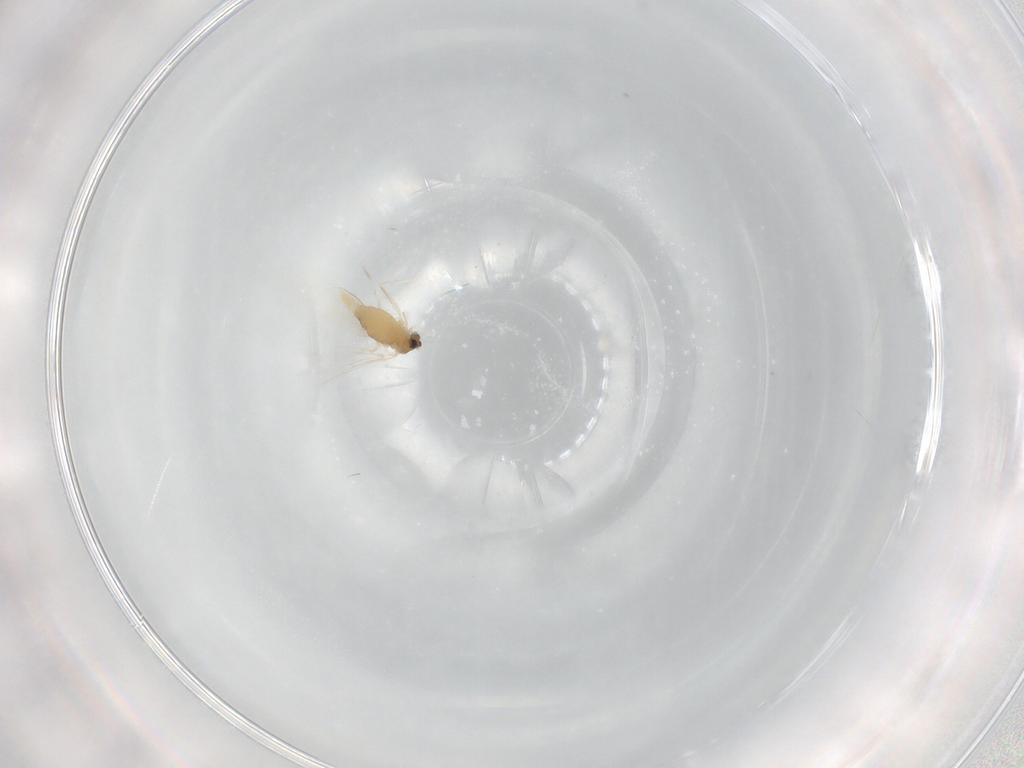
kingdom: Animalia
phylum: Arthropoda
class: Insecta
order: Diptera
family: Cecidomyiidae
